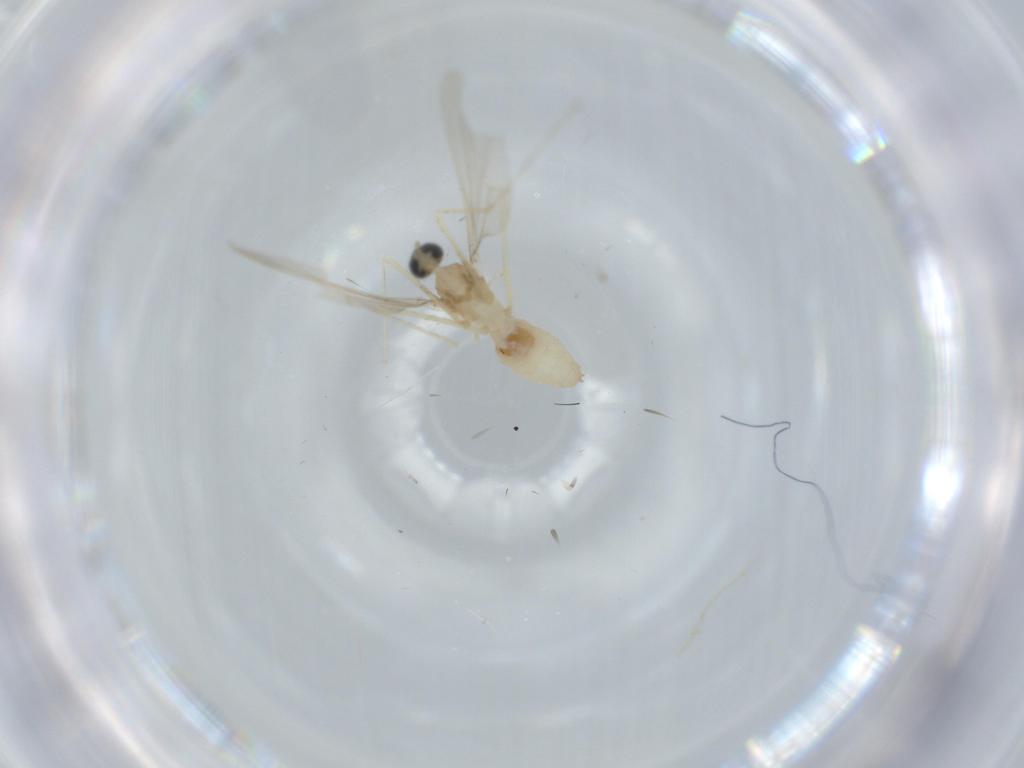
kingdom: Animalia
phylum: Arthropoda
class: Insecta
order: Diptera
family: Cecidomyiidae
